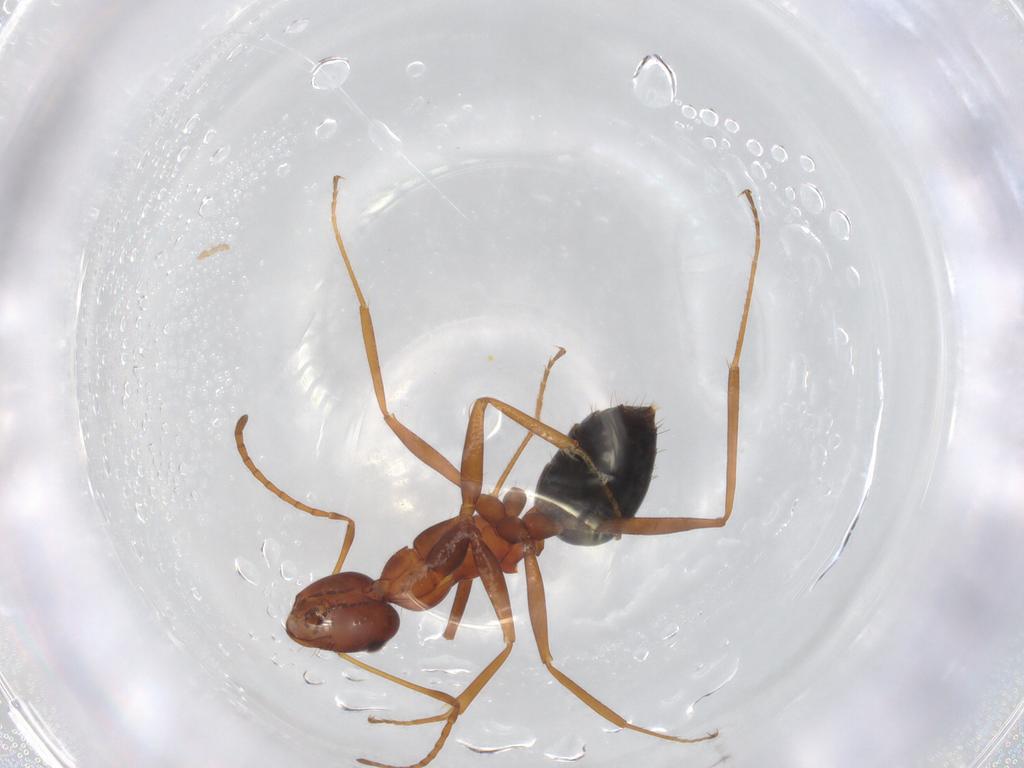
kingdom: Animalia
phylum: Arthropoda
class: Insecta
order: Hymenoptera
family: Formicidae
